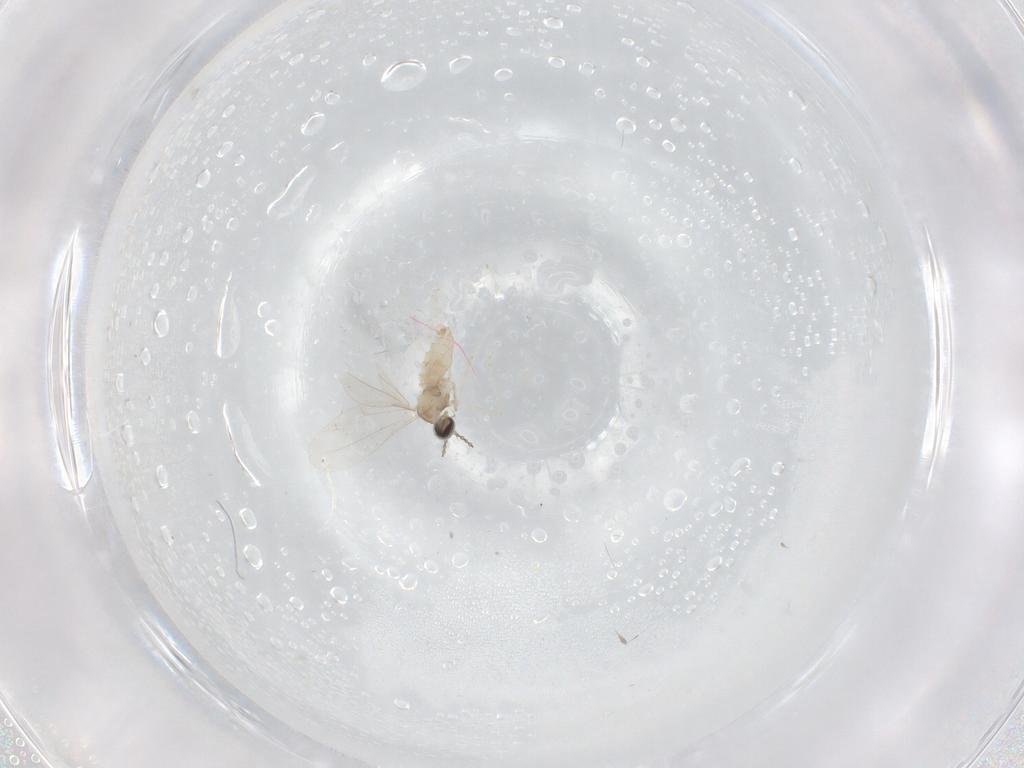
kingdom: Animalia
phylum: Arthropoda
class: Insecta
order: Diptera
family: Cecidomyiidae
